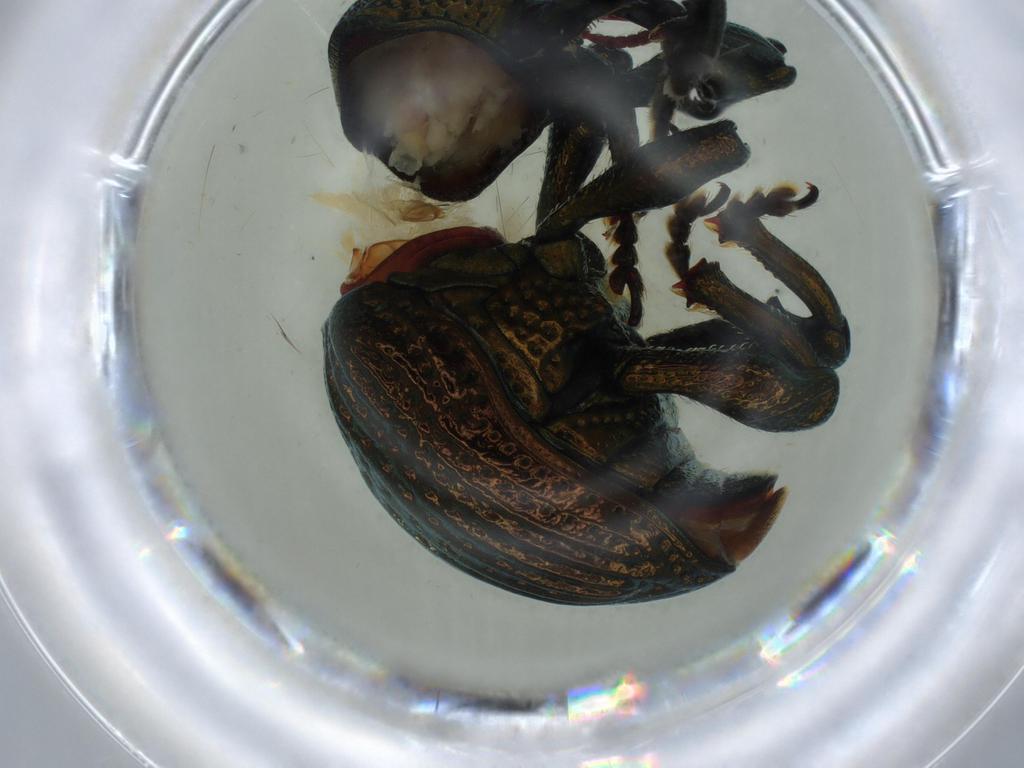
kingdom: Animalia
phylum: Arthropoda
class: Insecta
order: Coleoptera
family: Curculionidae
